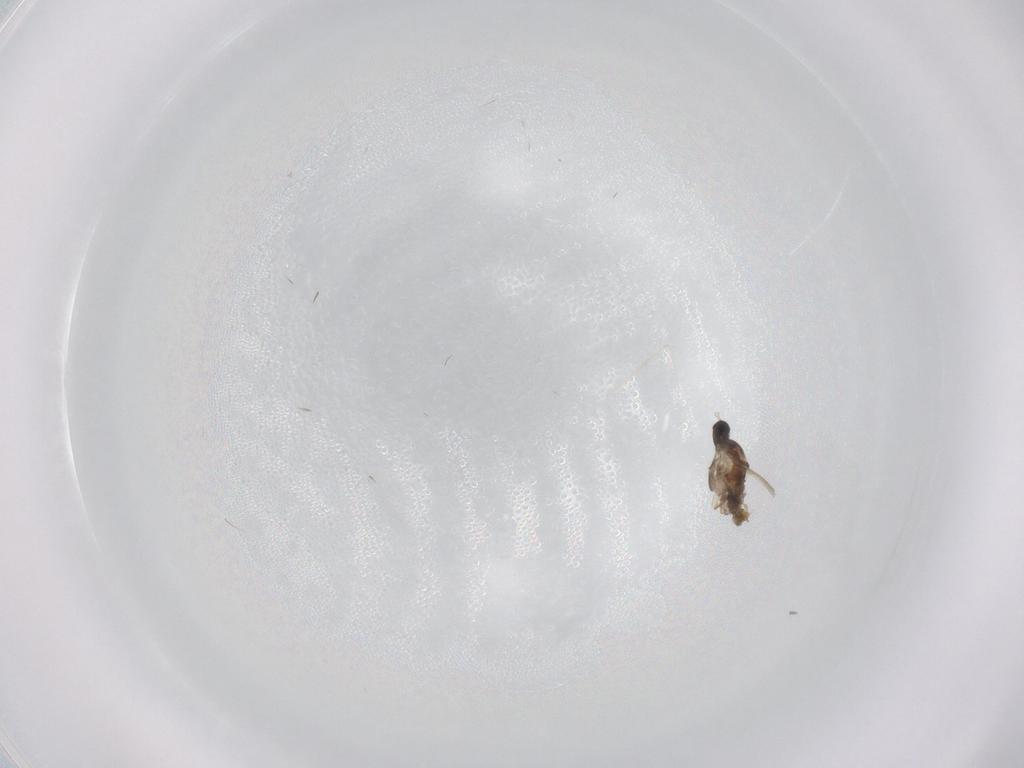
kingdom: Animalia
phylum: Arthropoda
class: Insecta
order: Diptera
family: Cecidomyiidae
